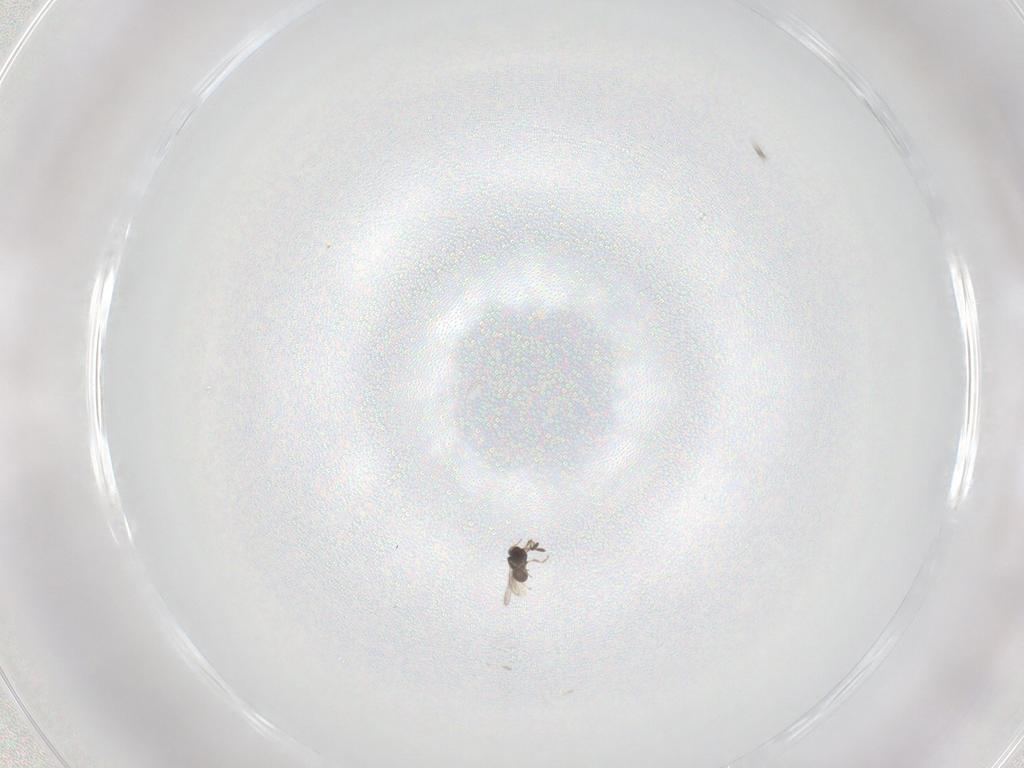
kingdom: Animalia
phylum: Arthropoda
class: Insecta
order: Hymenoptera
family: Scelionidae
